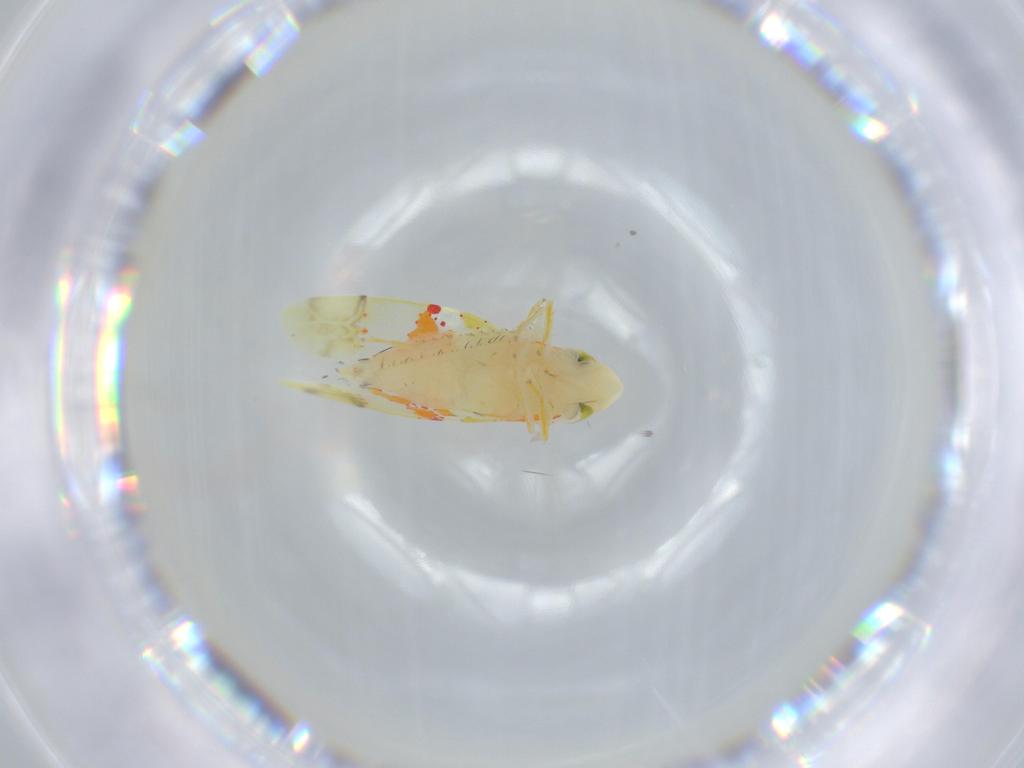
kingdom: Animalia
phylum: Arthropoda
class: Insecta
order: Hemiptera
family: Cicadellidae
